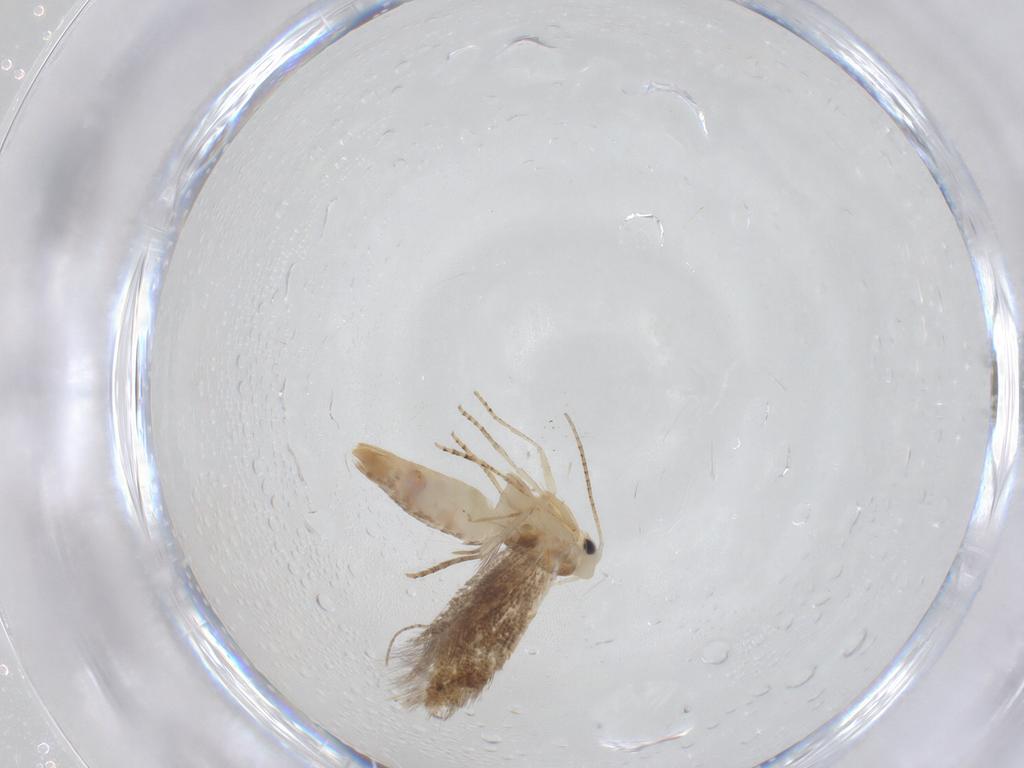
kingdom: Animalia
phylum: Arthropoda
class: Insecta
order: Lepidoptera
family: Bucculatricidae
